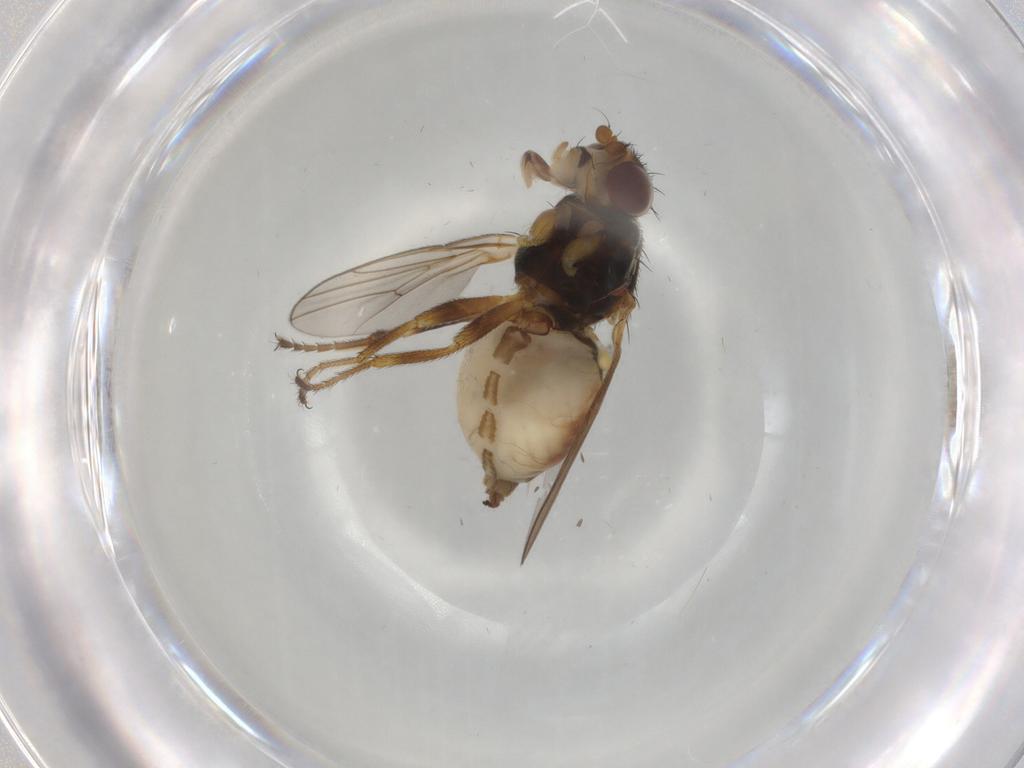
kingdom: Animalia
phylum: Arthropoda
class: Insecta
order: Diptera
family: Chloropidae
